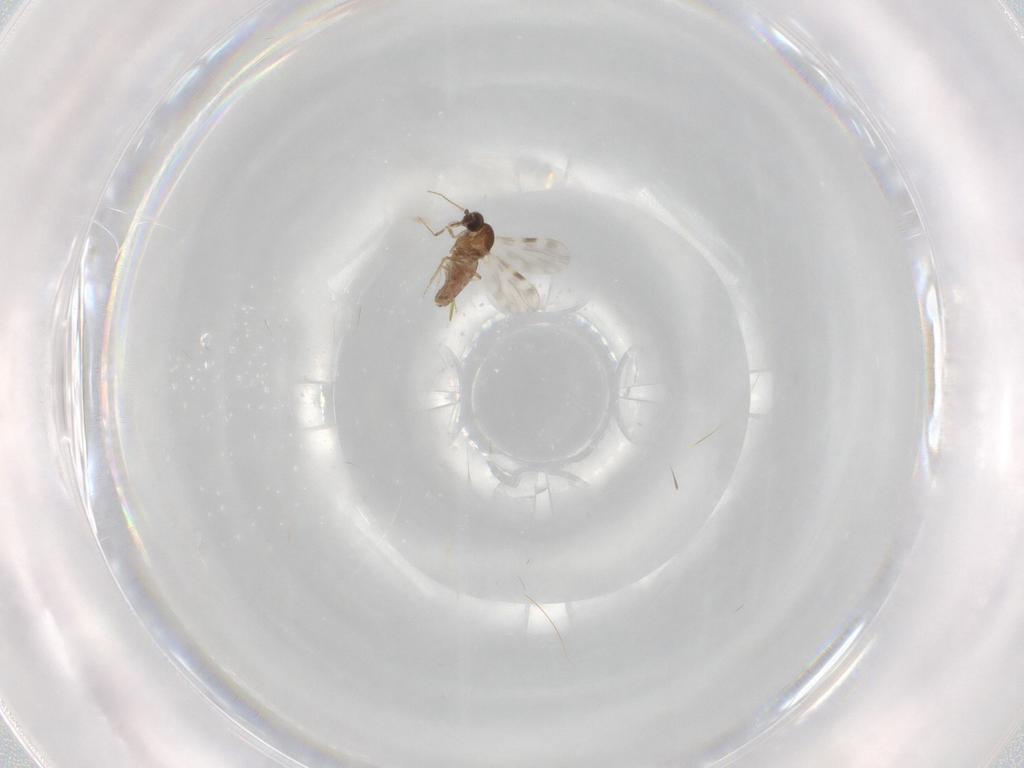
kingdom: Animalia
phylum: Arthropoda
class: Insecta
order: Diptera
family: Ceratopogonidae
